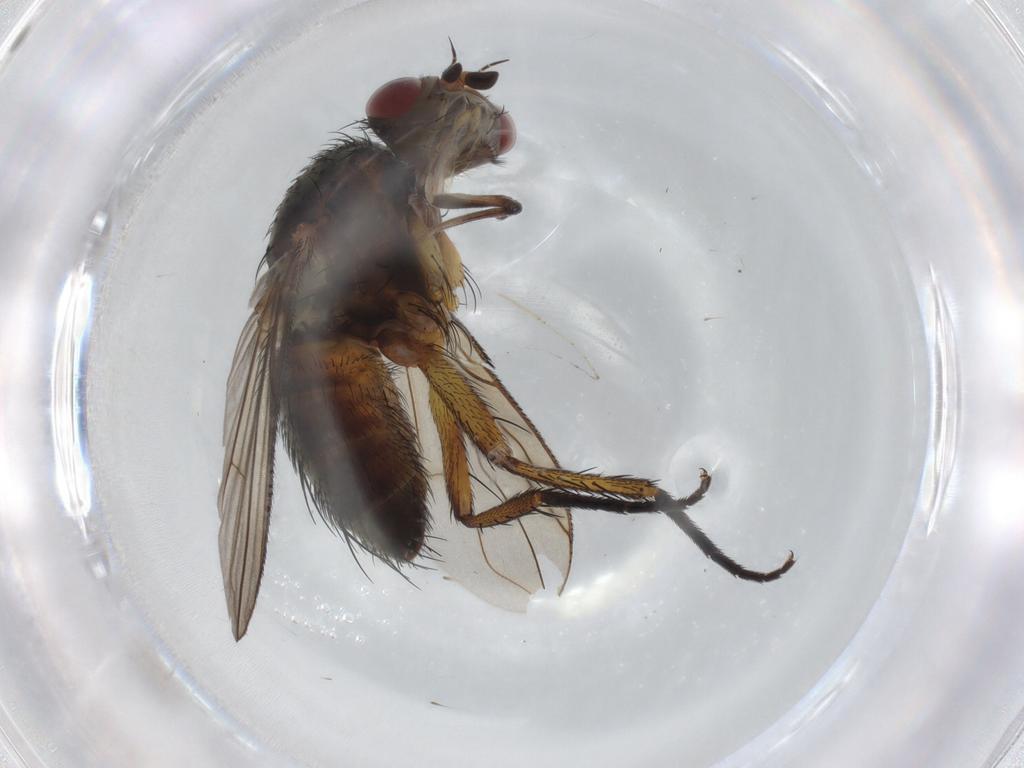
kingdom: Animalia
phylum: Arthropoda
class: Insecta
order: Diptera
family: Tachinidae
